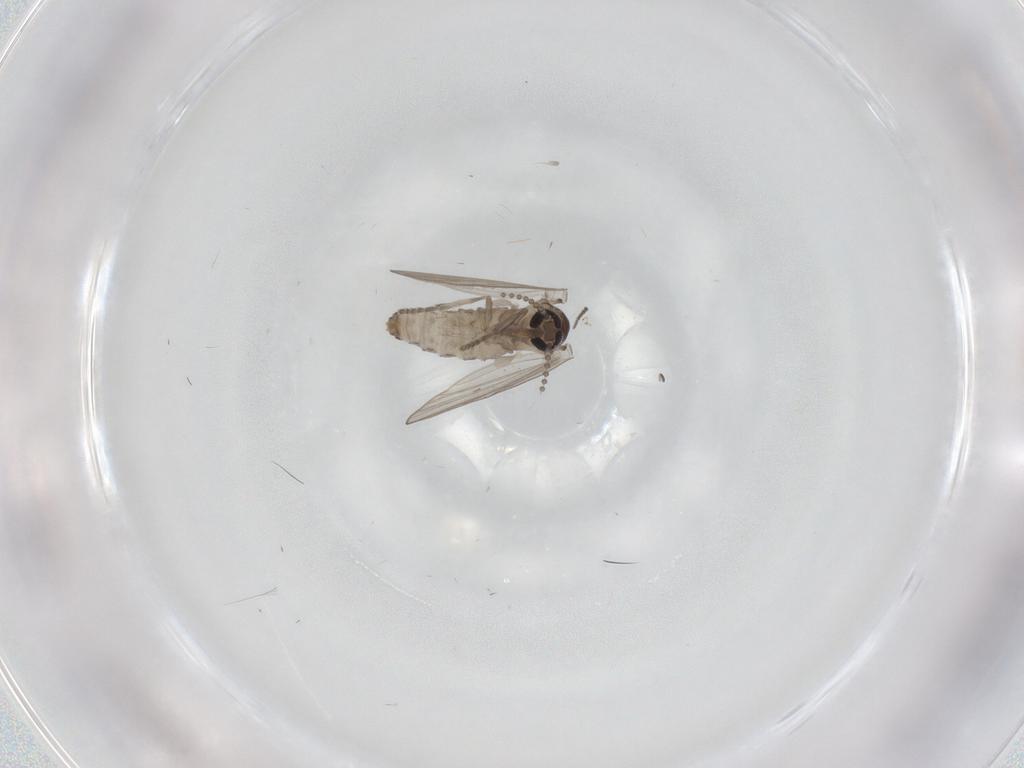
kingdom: Animalia
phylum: Arthropoda
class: Insecta
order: Diptera
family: Psychodidae
